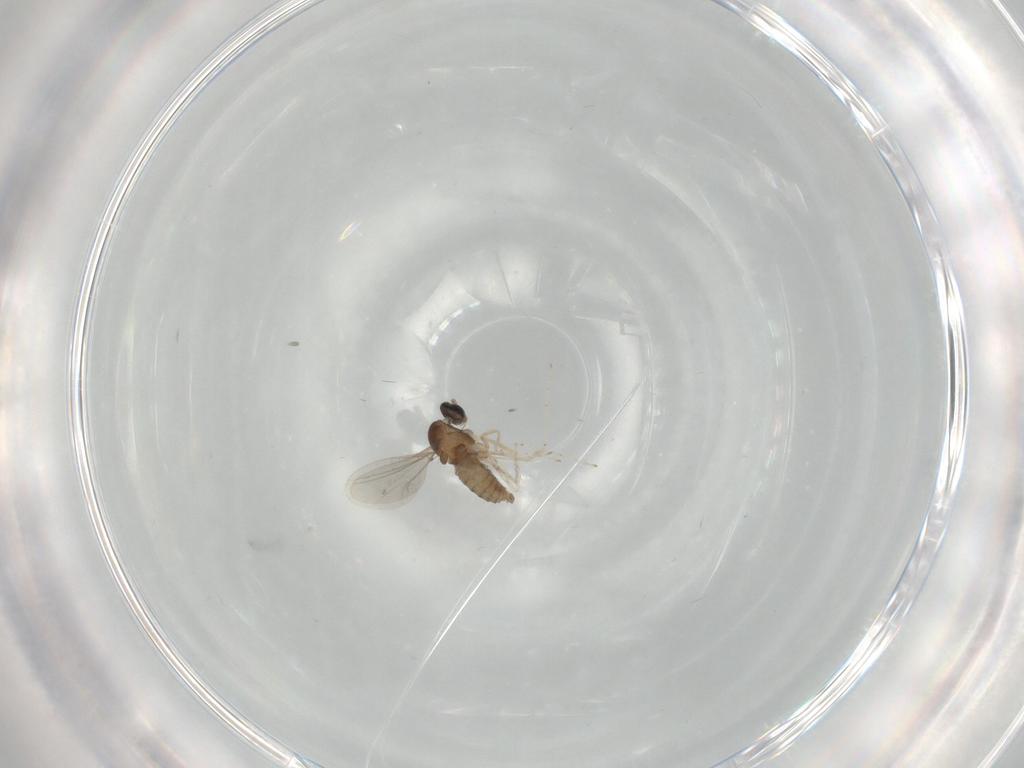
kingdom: Animalia
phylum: Arthropoda
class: Insecta
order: Diptera
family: Cecidomyiidae
